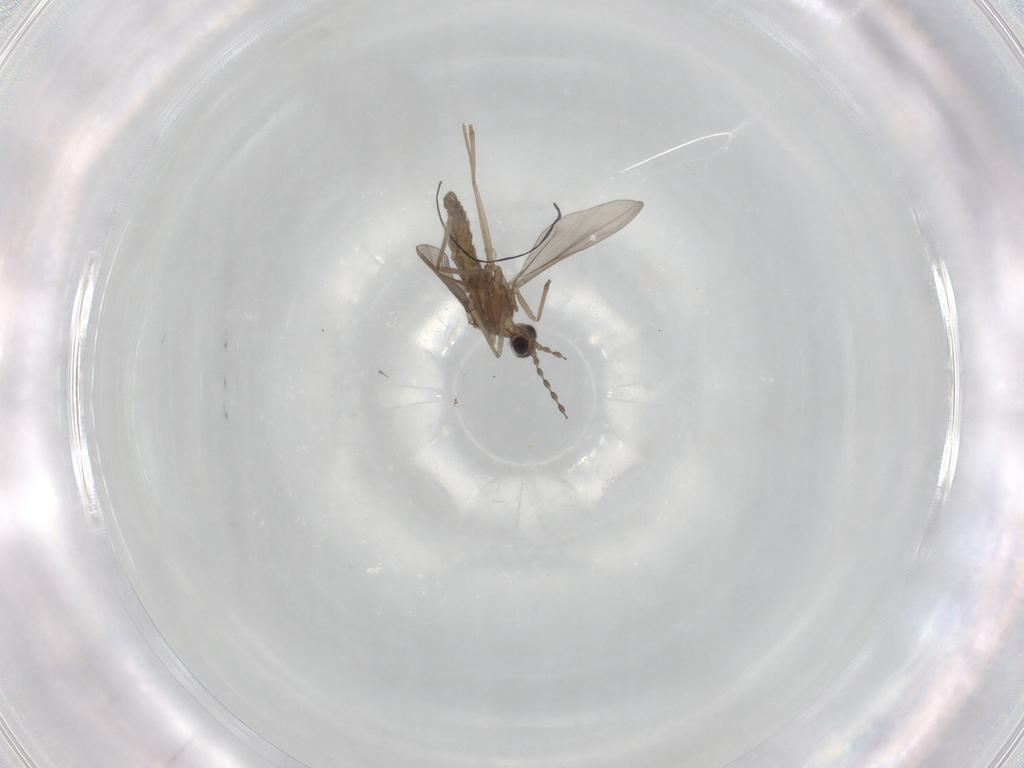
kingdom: Animalia
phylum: Arthropoda
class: Insecta
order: Diptera
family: Cecidomyiidae
